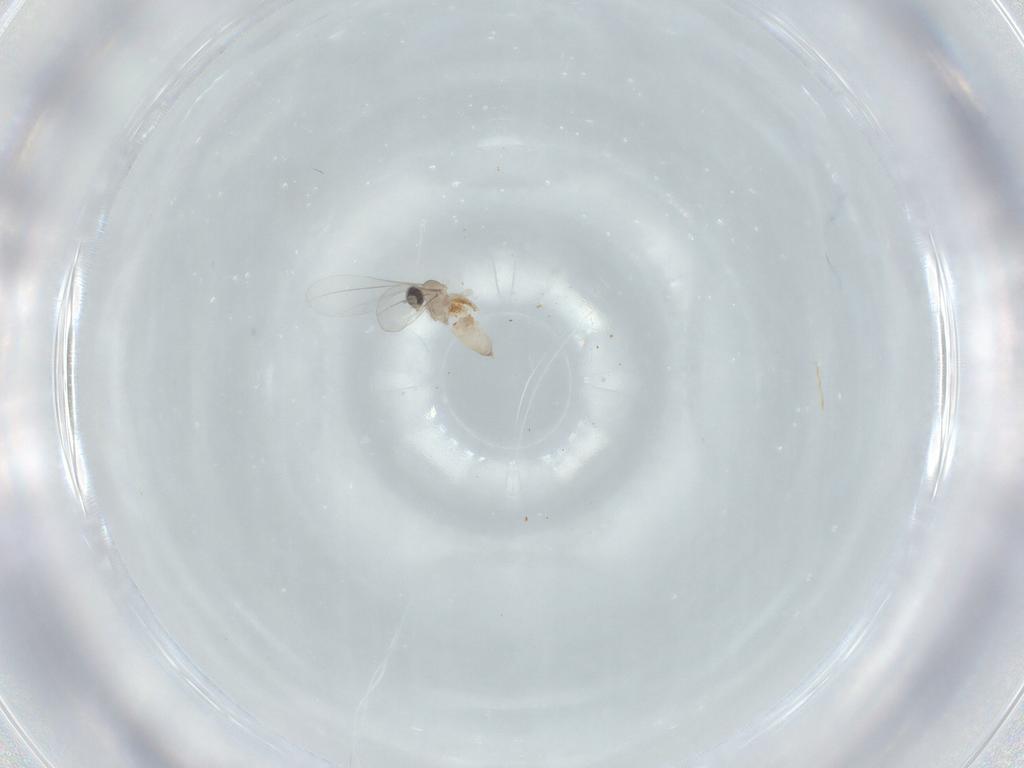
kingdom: Animalia
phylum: Arthropoda
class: Insecta
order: Diptera
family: Cecidomyiidae
